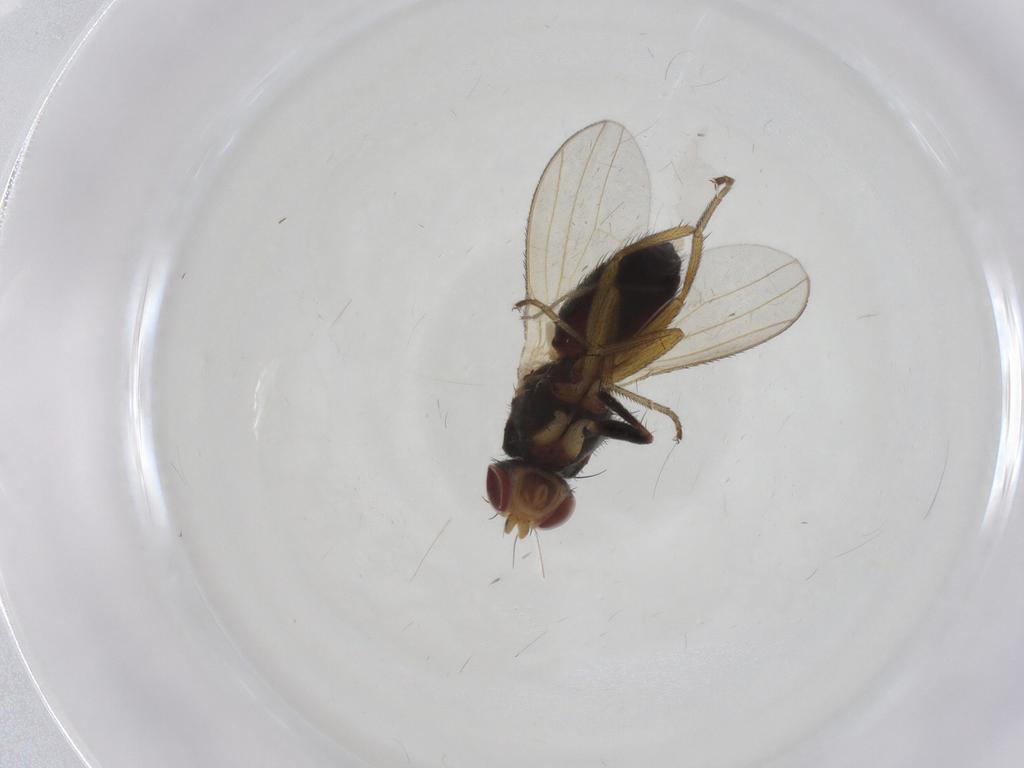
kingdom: Animalia
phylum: Arthropoda
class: Insecta
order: Diptera
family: Heleomyzidae
